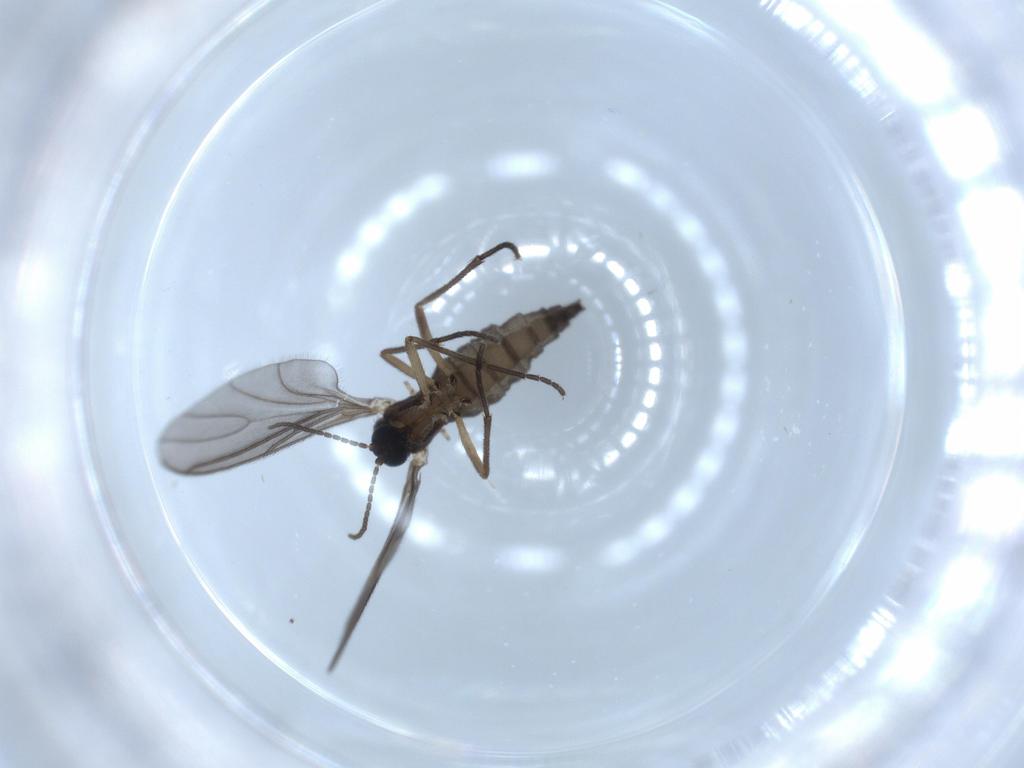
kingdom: Animalia
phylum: Arthropoda
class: Insecta
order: Diptera
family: Sciaridae
